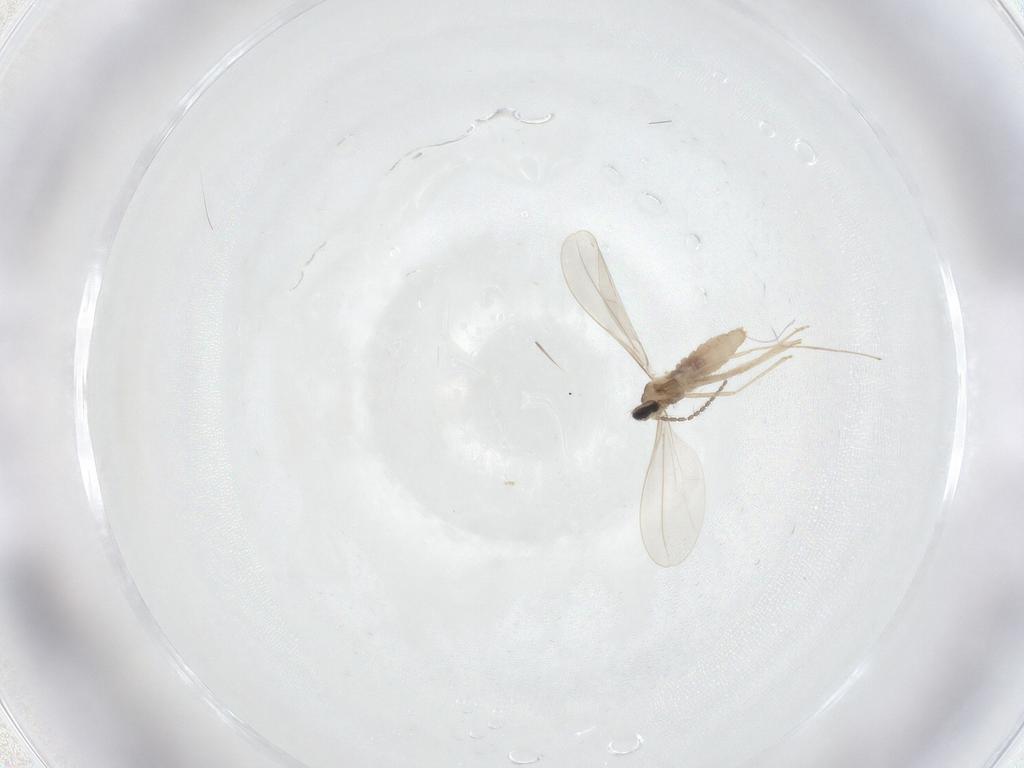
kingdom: Animalia
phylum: Arthropoda
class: Insecta
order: Diptera
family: Cecidomyiidae
